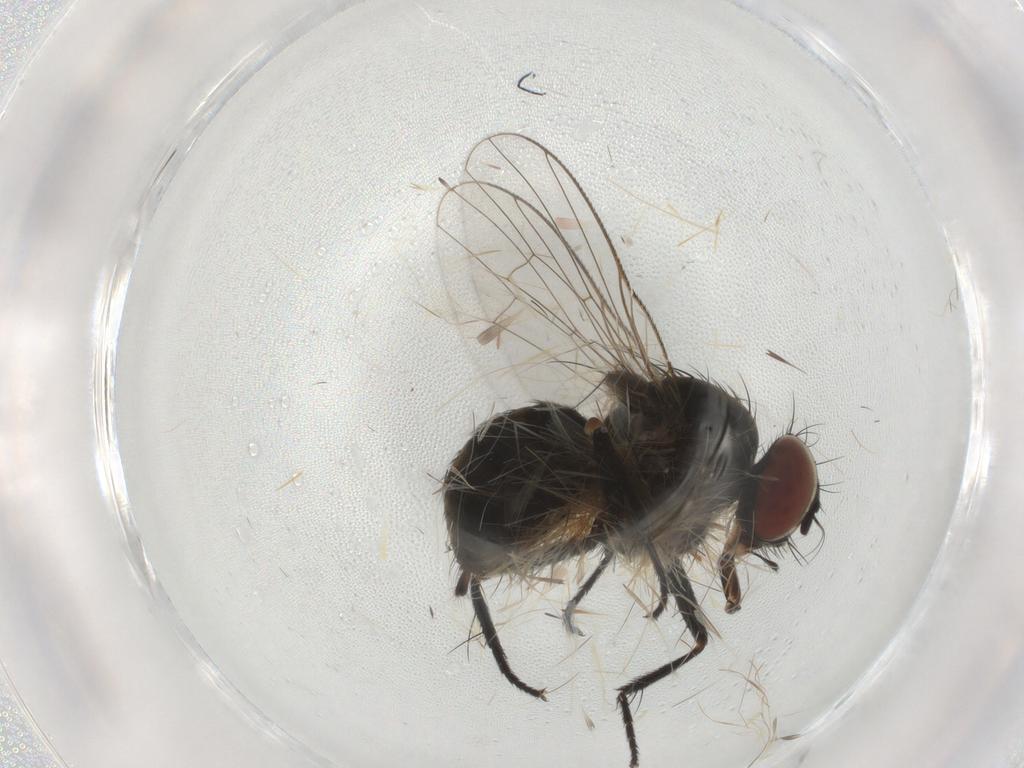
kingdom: Animalia
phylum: Arthropoda
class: Insecta
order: Diptera
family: Muscidae
